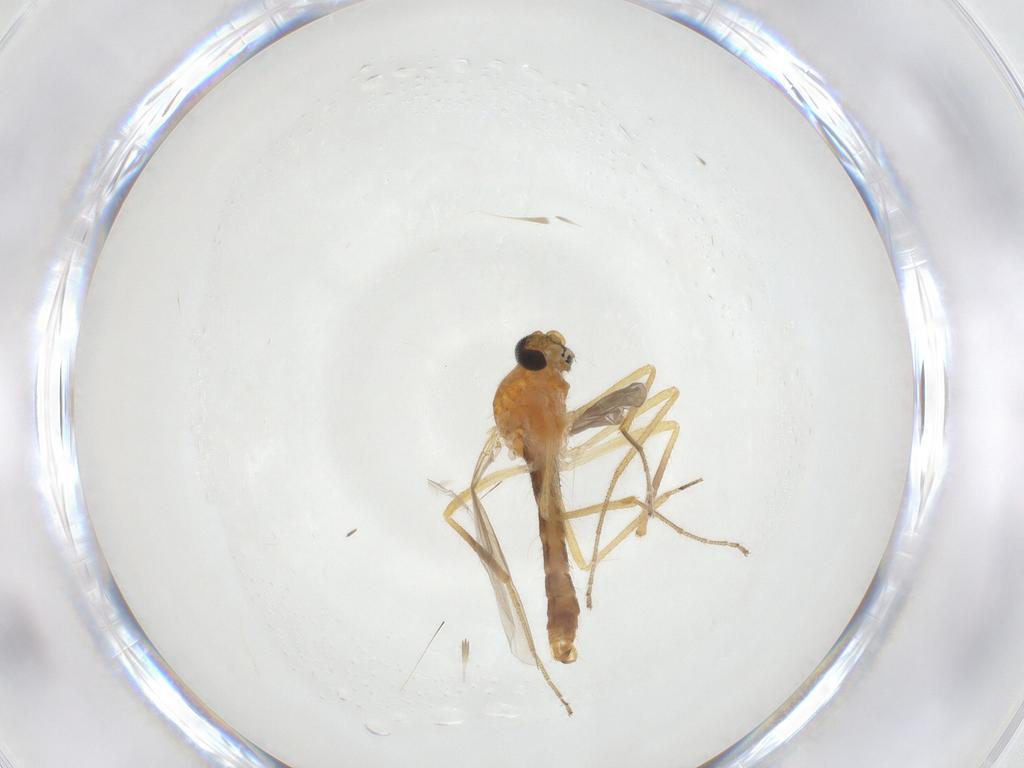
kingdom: Animalia
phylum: Arthropoda
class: Insecta
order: Diptera
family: Ceratopogonidae
